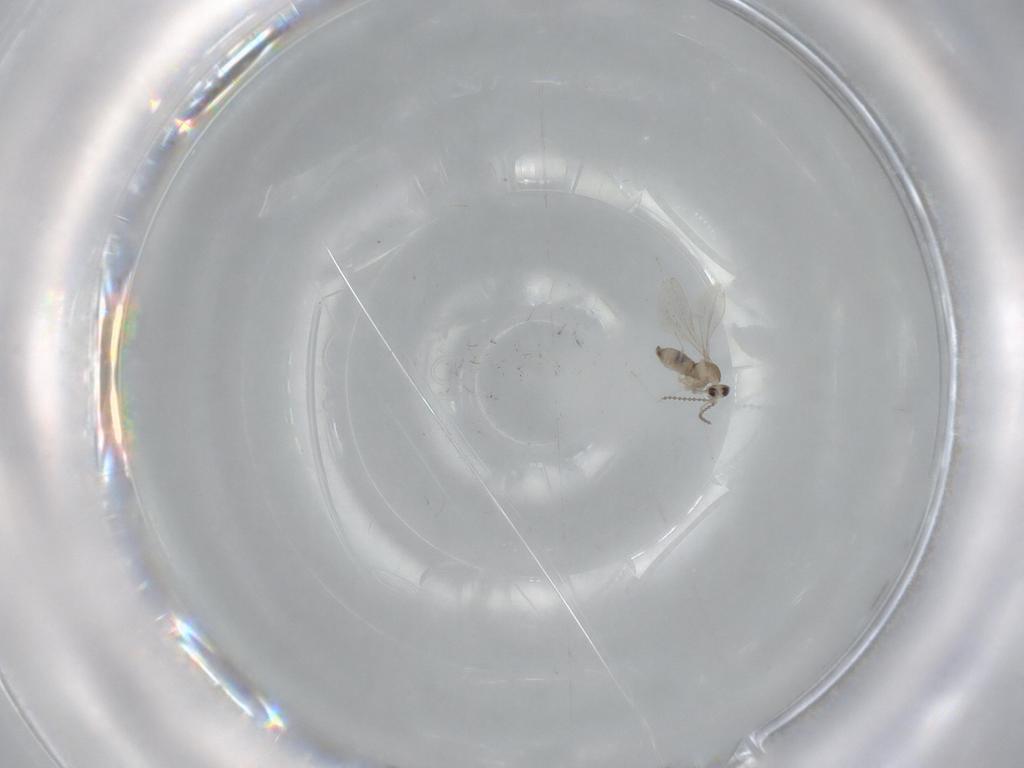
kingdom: Animalia
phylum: Arthropoda
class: Insecta
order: Diptera
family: Cecidomyiidae
